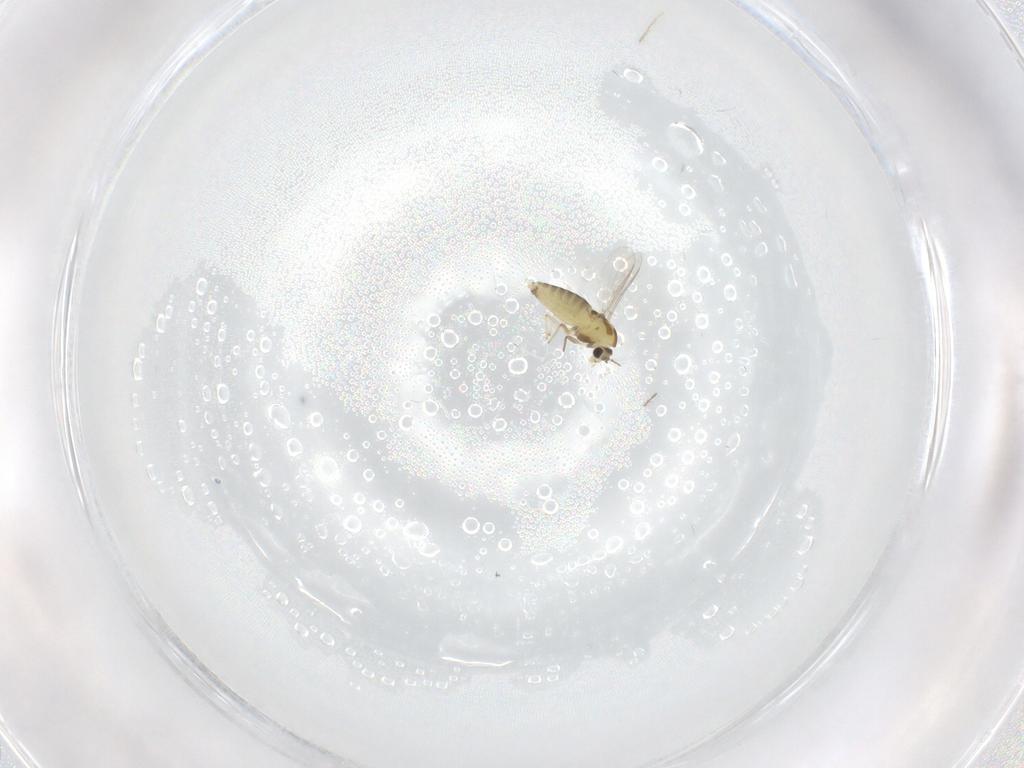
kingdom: Animalia
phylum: Arthropoda
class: Insecta
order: Diptera
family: Chironomidae
